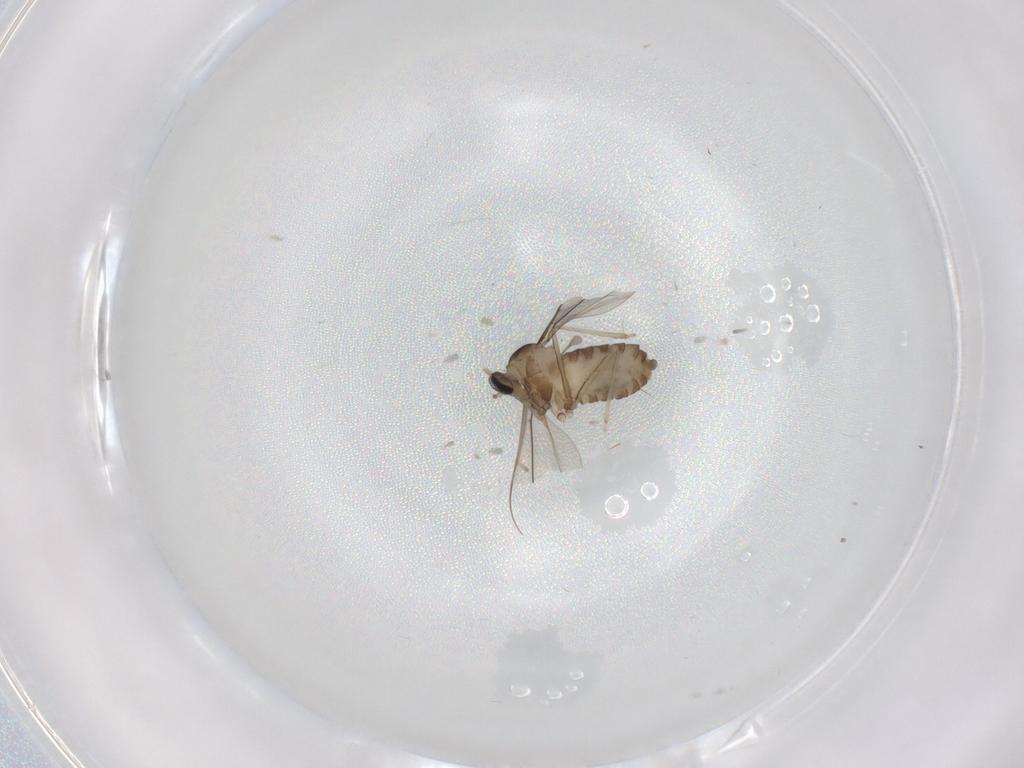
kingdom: Animalia
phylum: Arthropoda
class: Insecta
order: Diptera
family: Cecidomyiidae
